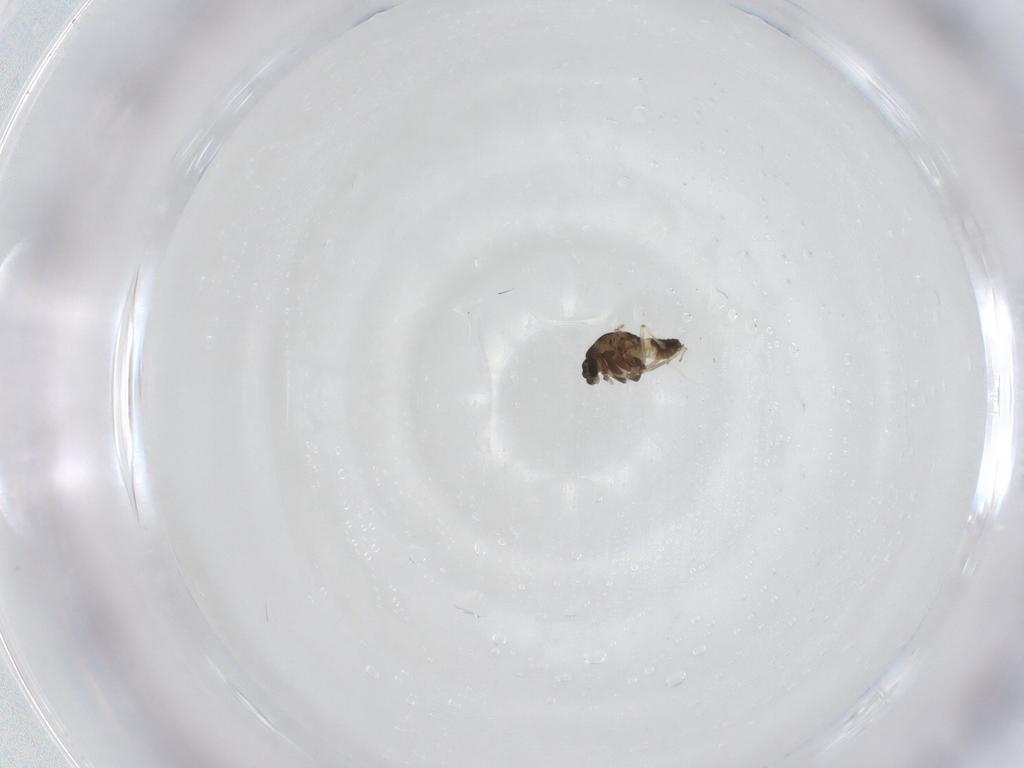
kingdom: Animalia
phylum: Arthropoda
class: Insecta
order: Diptera
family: Chironomidae
